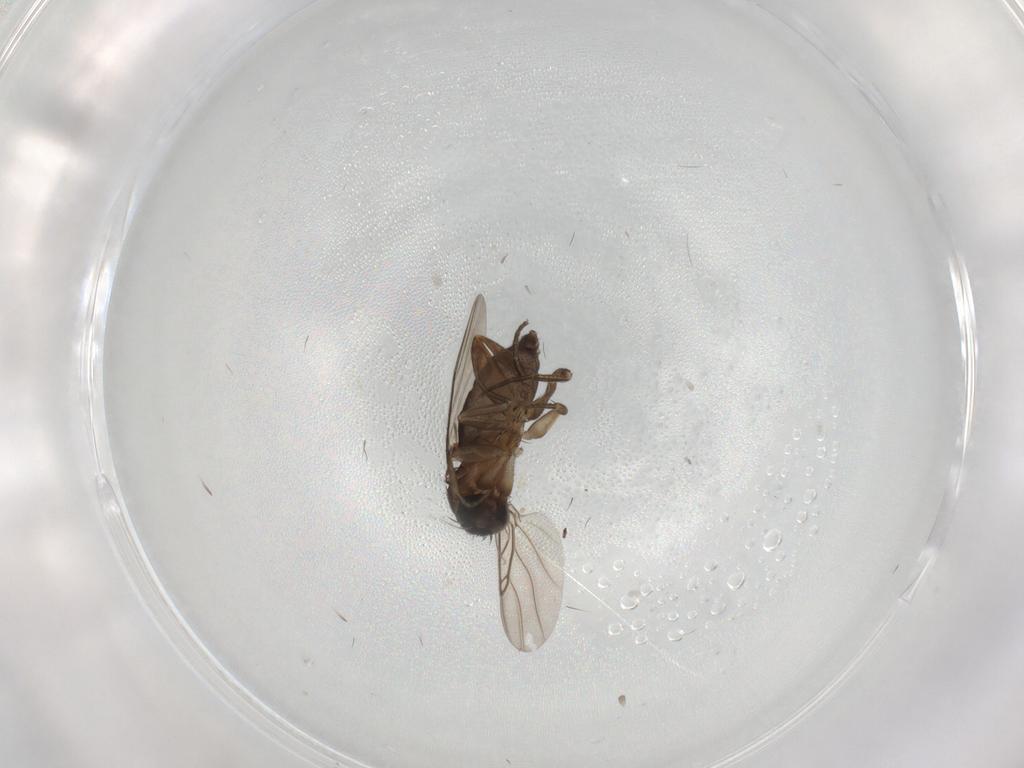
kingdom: Animalia
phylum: Arthropoda
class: Insecta
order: Diptera
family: Phoridae
